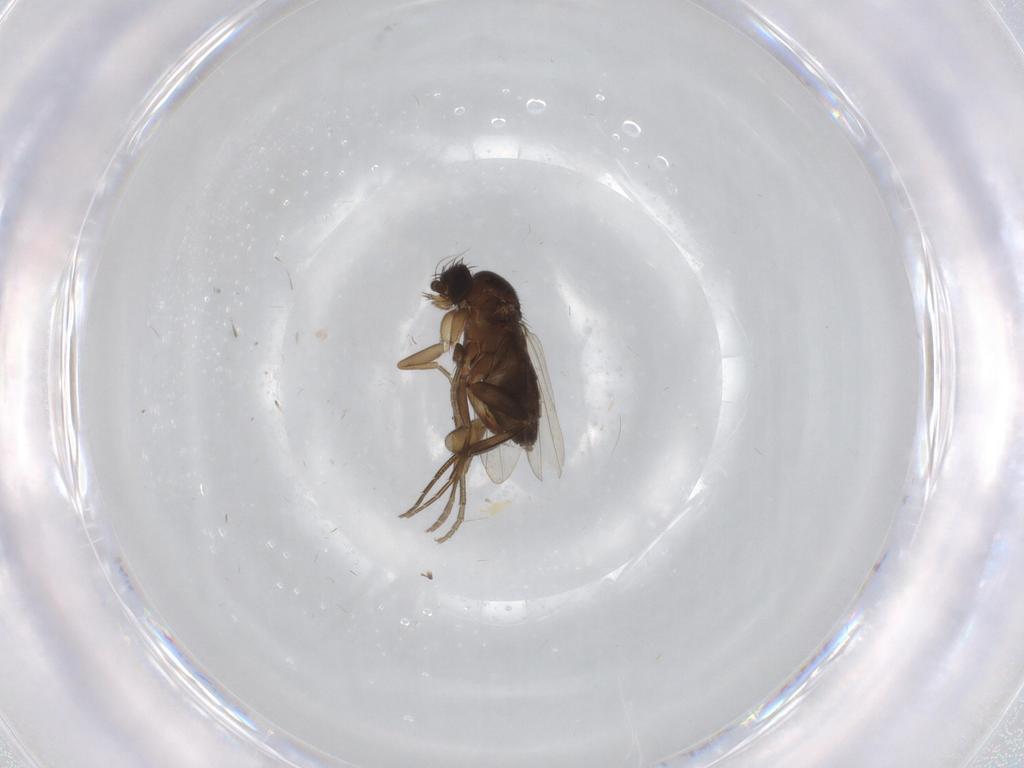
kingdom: Animalia
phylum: Arthropoda
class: Insecta
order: Diptera
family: Phoridae
